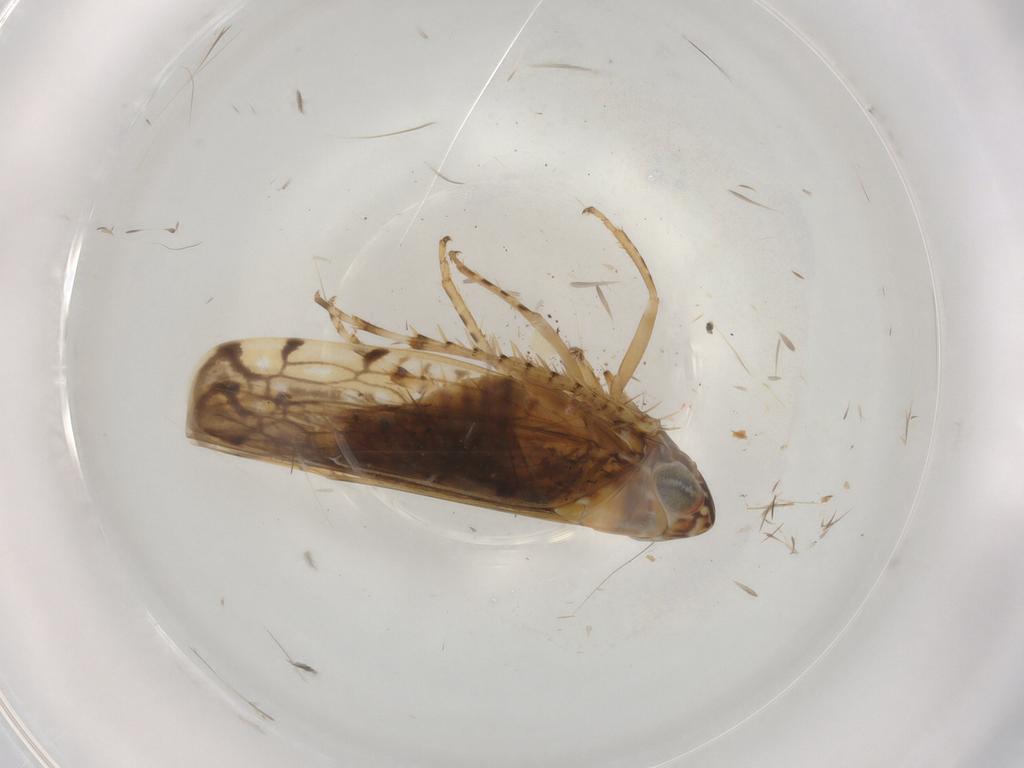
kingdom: Animalia
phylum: Arthropoda
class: Insecta
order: Hemiptera
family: Cicadellidae
